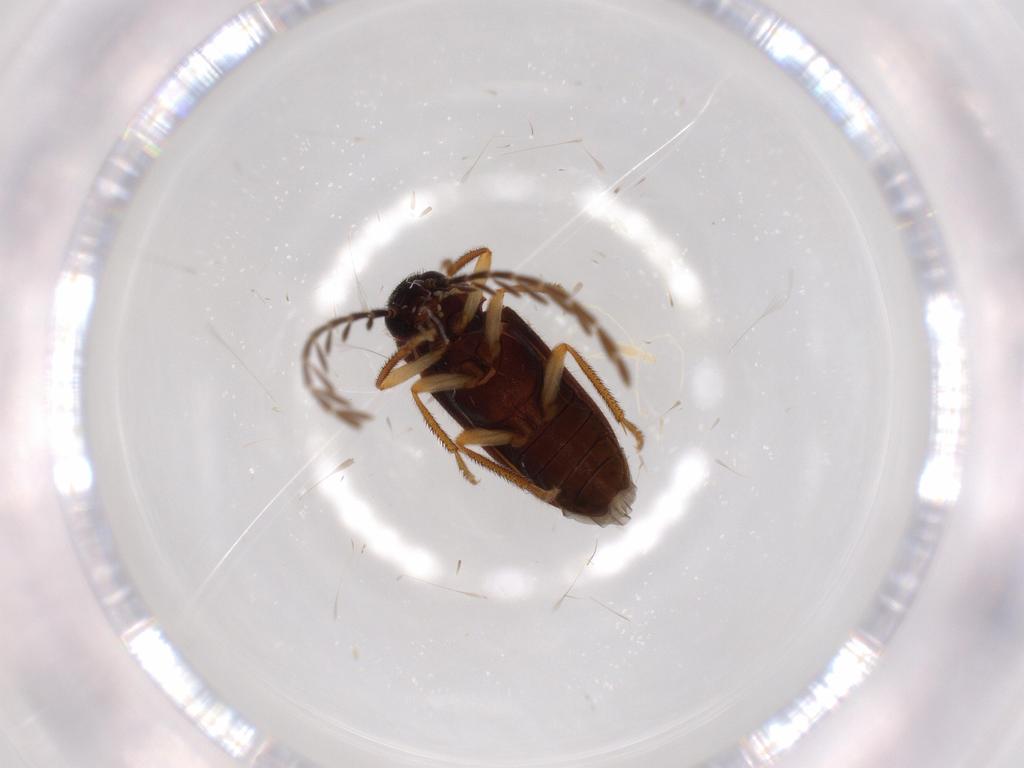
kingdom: Animalia
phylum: Arthropoda
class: Insecta
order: Coleoptera
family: Ptilodactylidae
